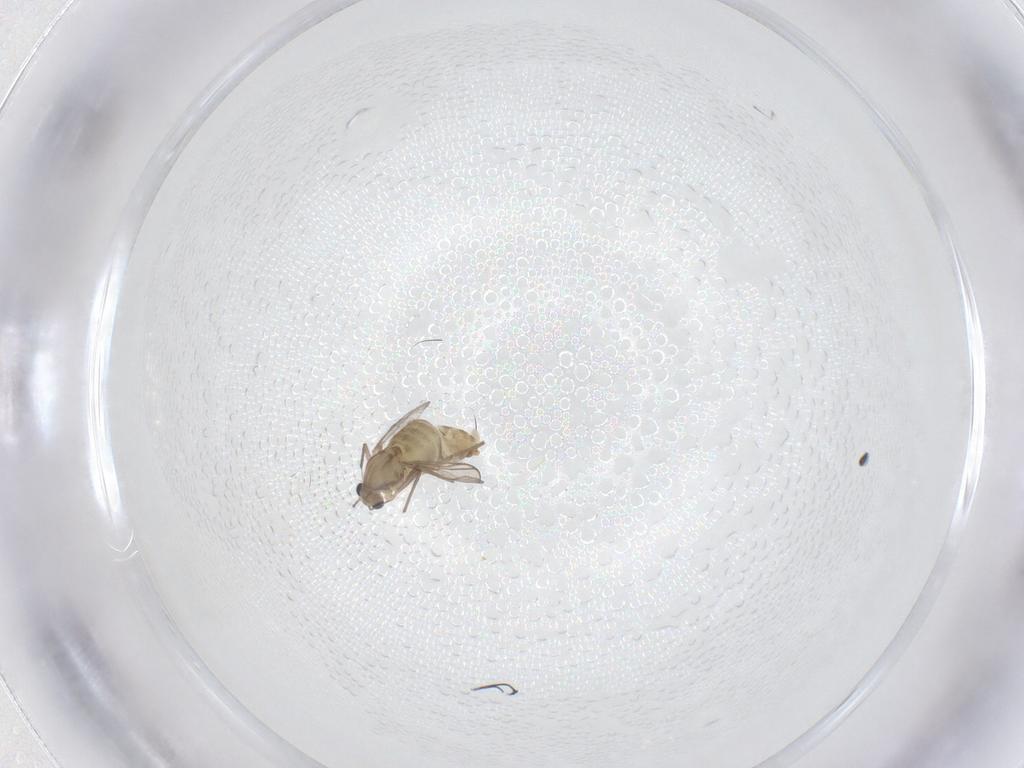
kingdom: Animalia
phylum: Arthropoda
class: Insecta
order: Diptera
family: Chironomidae
